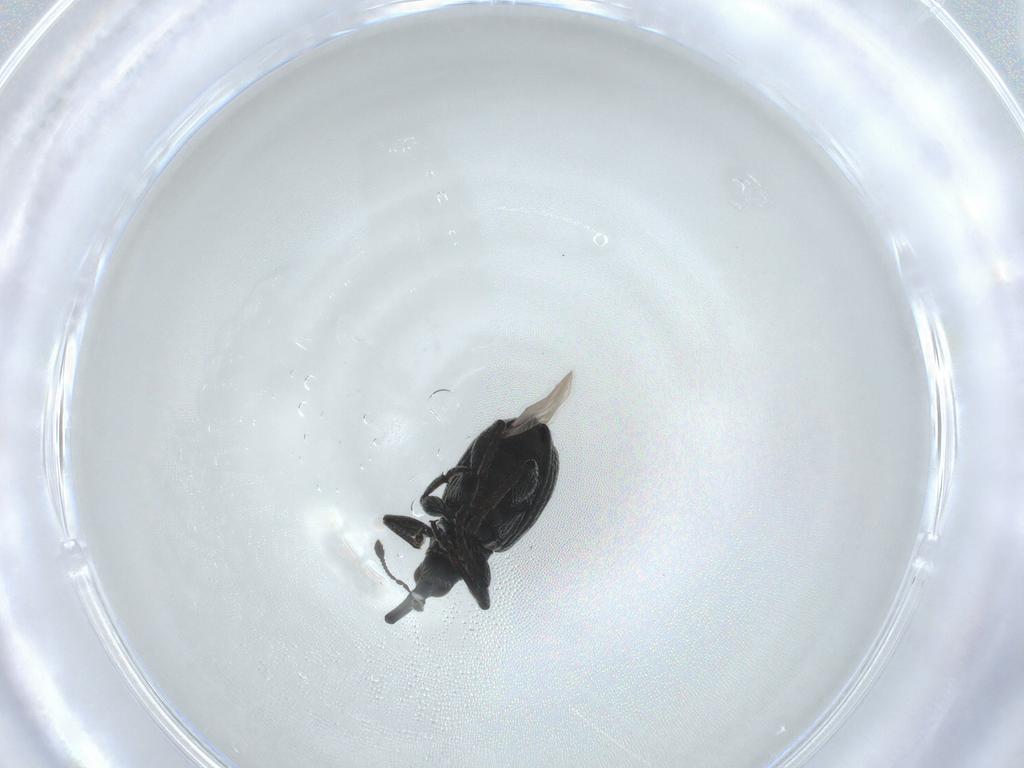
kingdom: Animalia
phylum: Arthropoda
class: Insecta
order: Coleoptera
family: Brentidae
